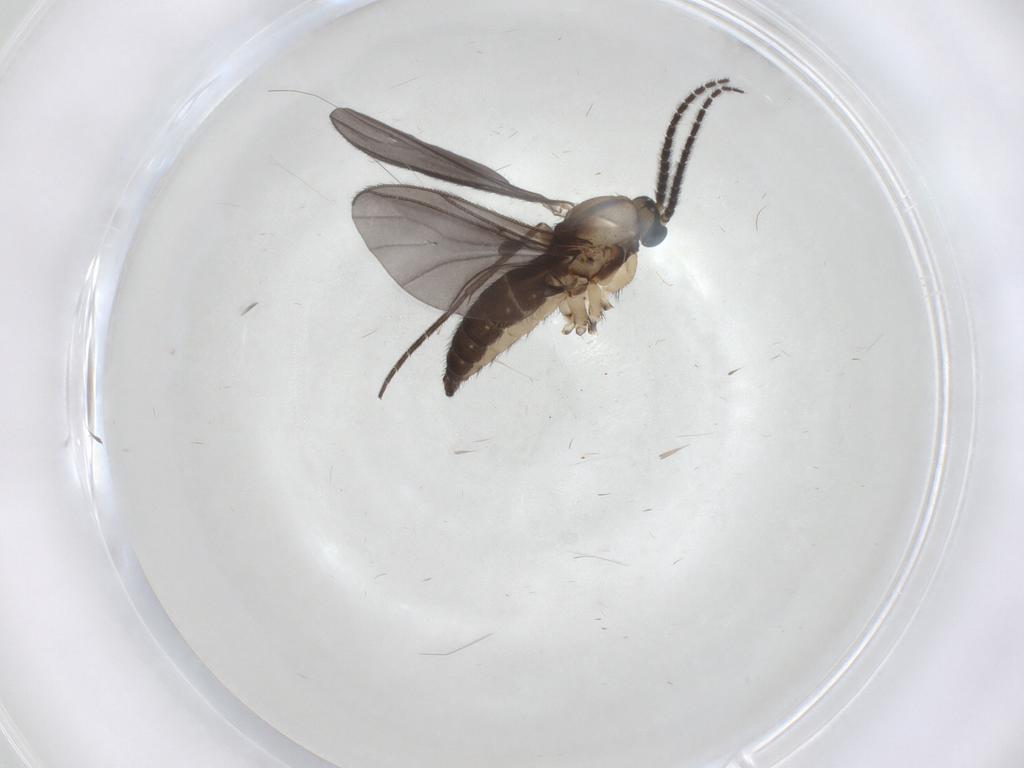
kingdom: Animalia
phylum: Arthropoda
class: Insecta
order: Diptera
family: Sciaridae
